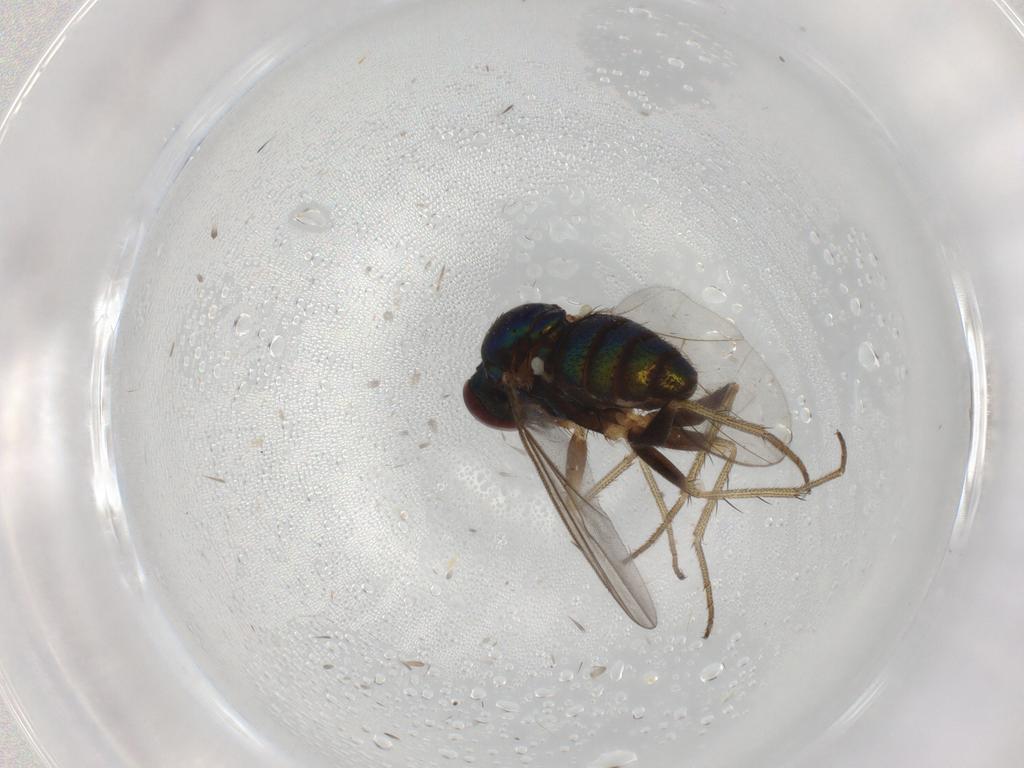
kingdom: Animalia
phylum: Arthropoda
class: Insecta
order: Diptera
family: Dolichopodidae
